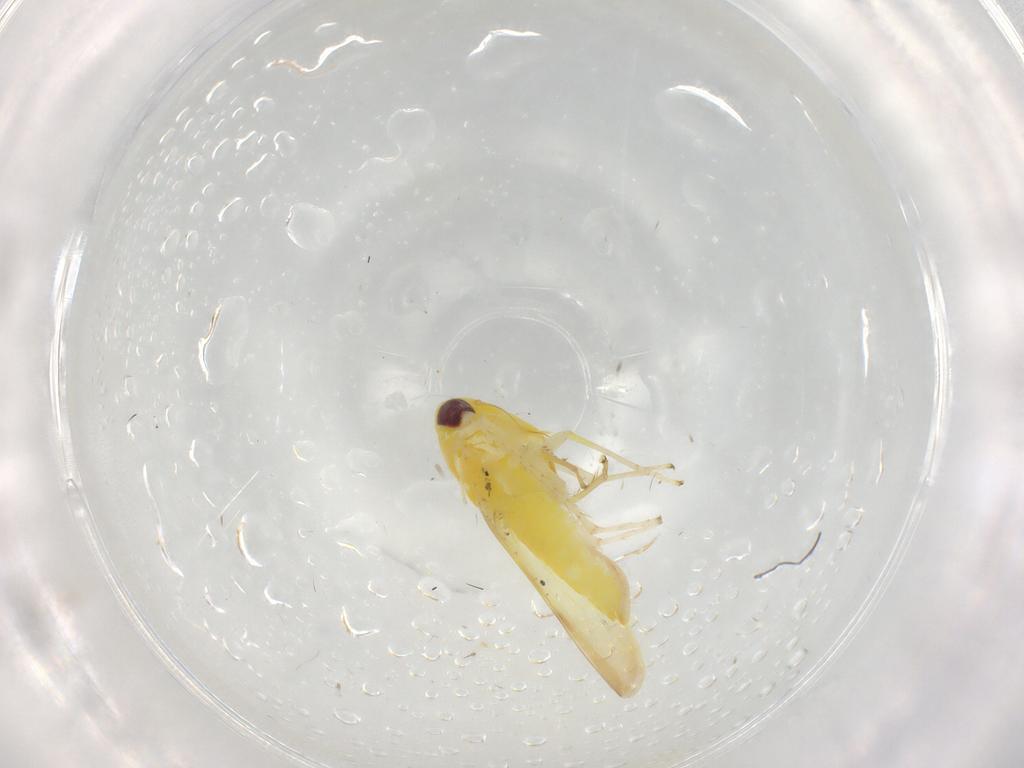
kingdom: Animalia
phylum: Arthropoda
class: Insecta
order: Hemiptera
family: Cicadellidae
